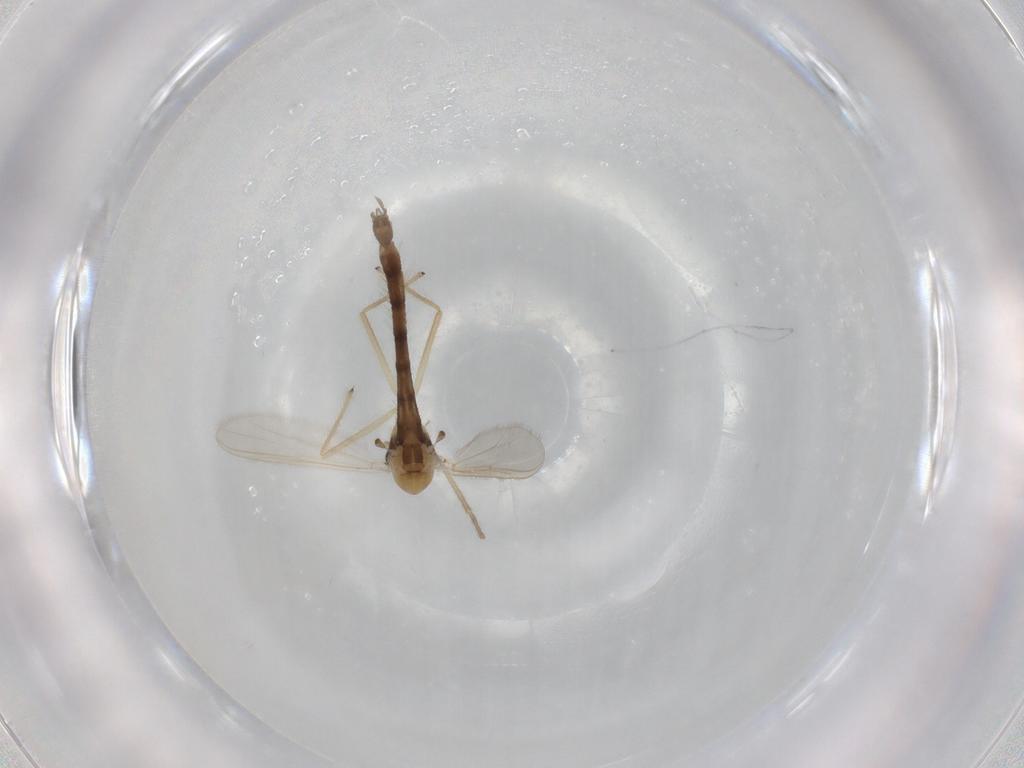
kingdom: Animalia
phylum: Arthropoda
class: Insecta
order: Diptera
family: Chironomidae
